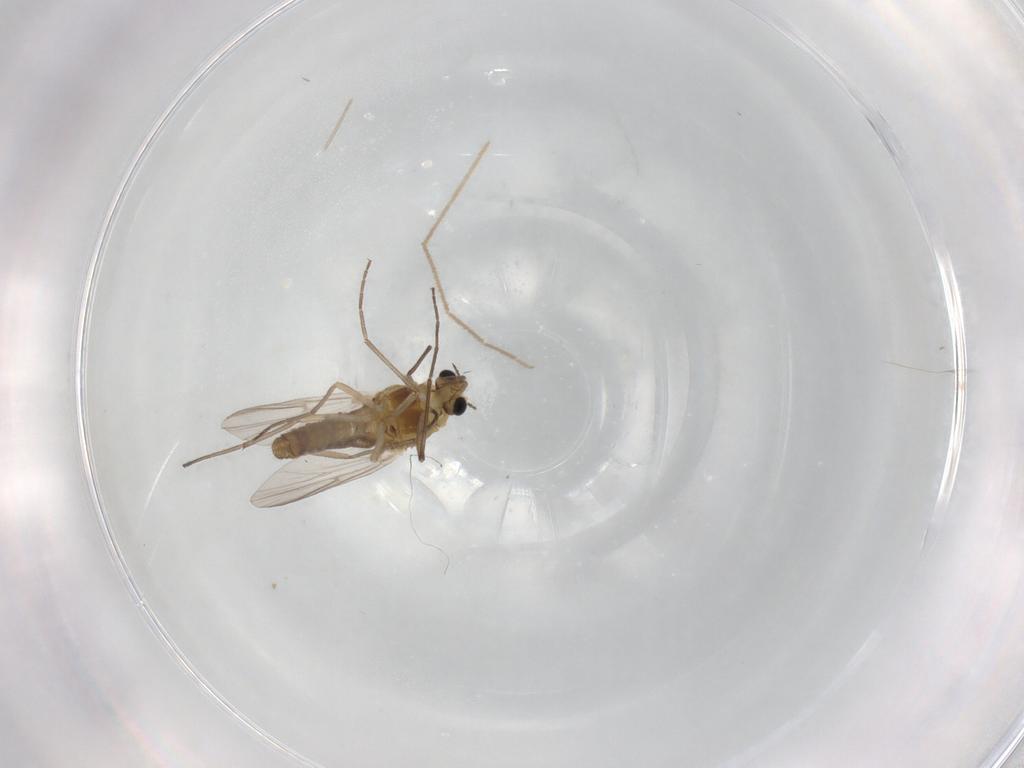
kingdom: Animalia
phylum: Arthropoda
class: Insecta
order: Diptera
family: Chironomidae
